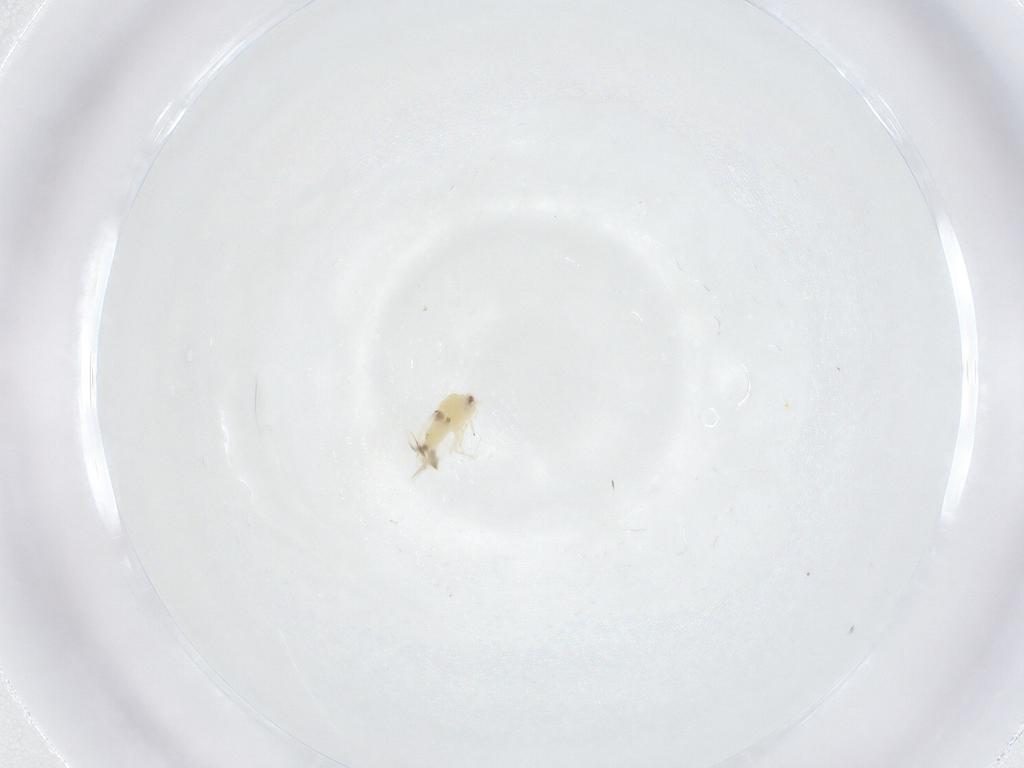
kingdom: Animalia
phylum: Arthropoda
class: Insecta
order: Hemiptera
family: Aleyrodidae
